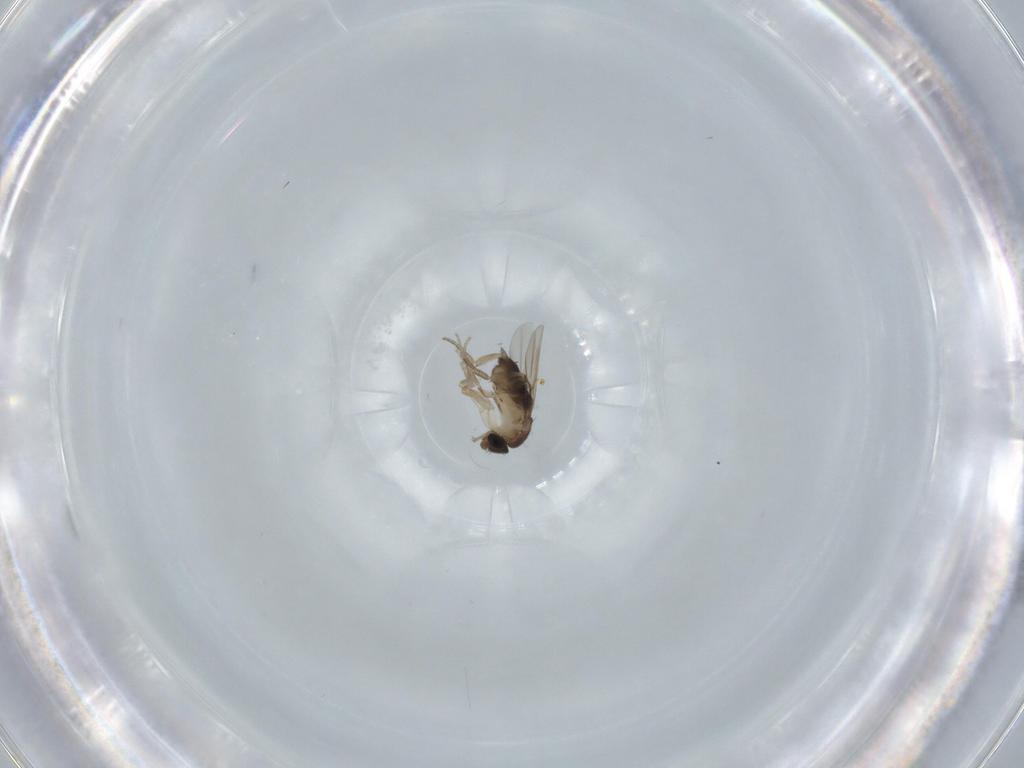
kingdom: Animalia
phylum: Arthropoda
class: Insecta
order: Diptera
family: Phoridae
